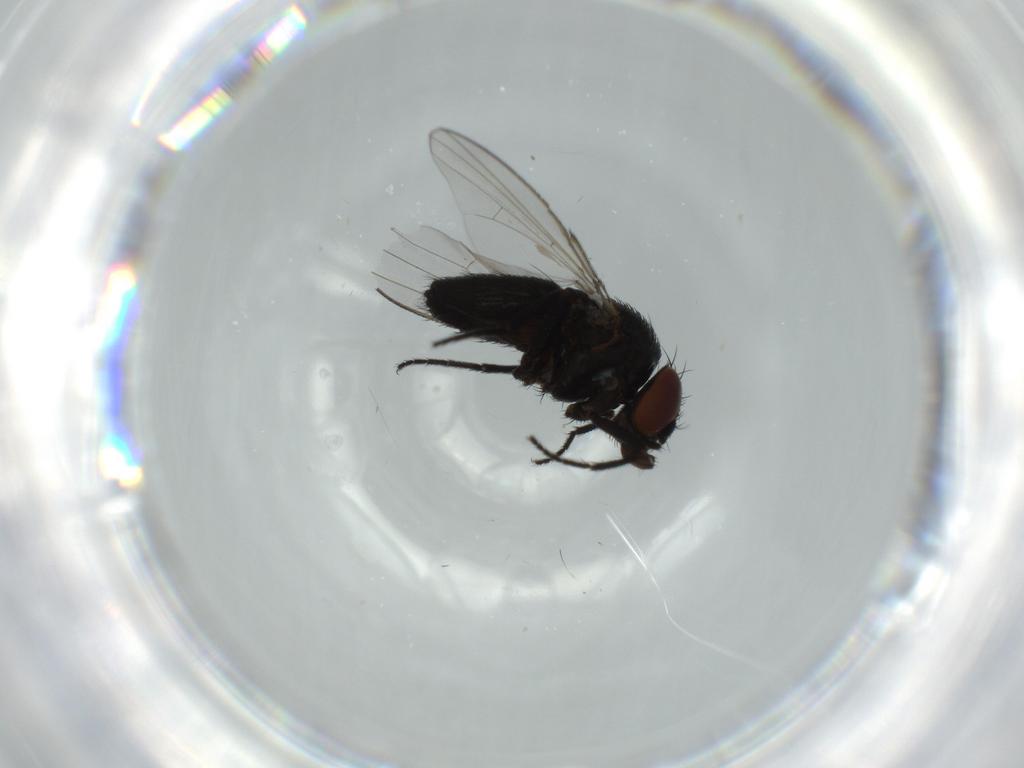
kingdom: Animalia
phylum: Arthropoda
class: Insecta
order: Diptera
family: Milichiidae
